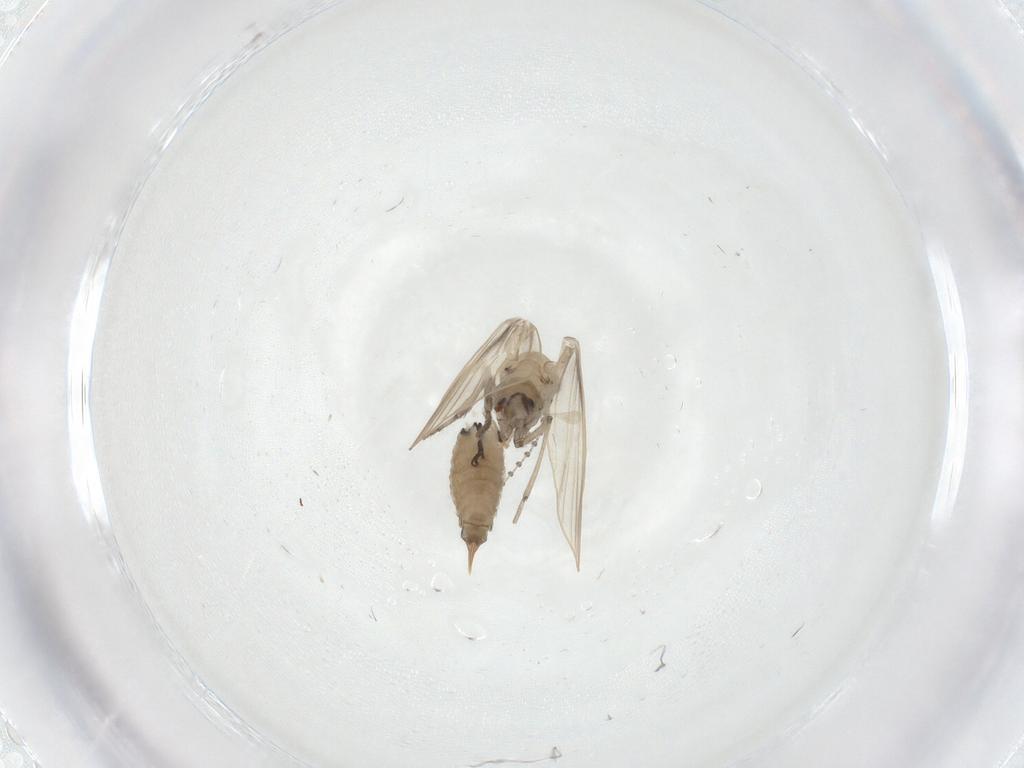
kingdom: Animalia
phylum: Arthropoda
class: Insecta
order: Diptera
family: Psychodidae
